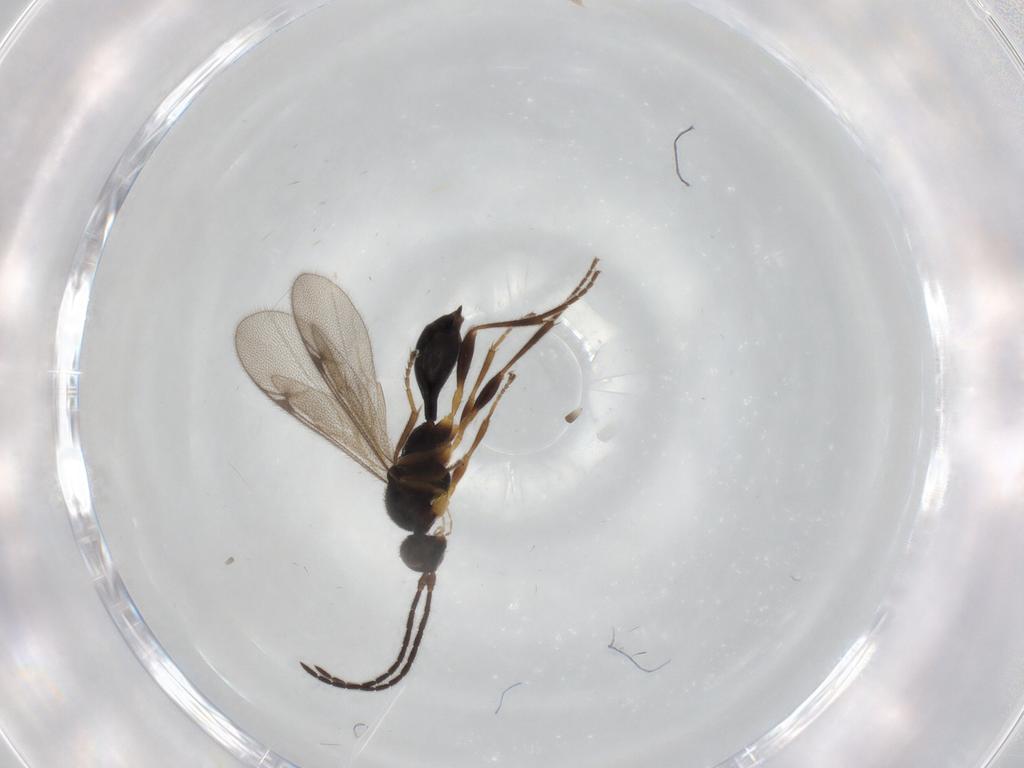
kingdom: Animalia
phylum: Arthropoda
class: Insecta
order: Hymenoptera
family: Proctotrupidae
